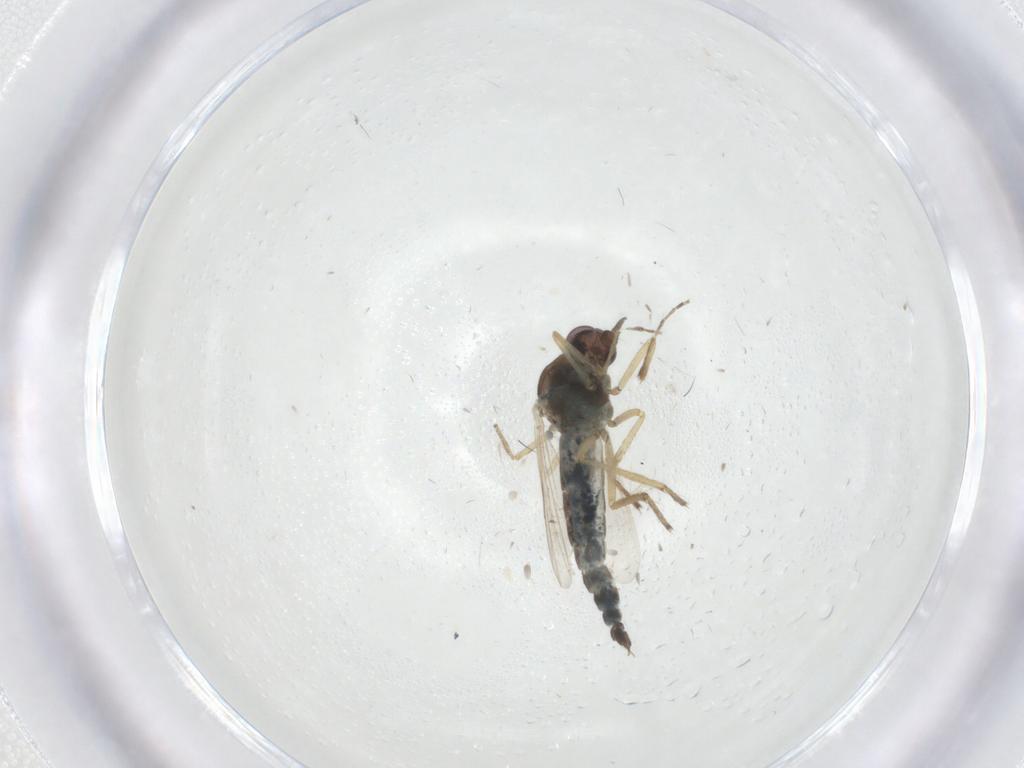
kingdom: Animalia
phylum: Arthropoda
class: Insecta
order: Diptera
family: Ceratopogonidae
